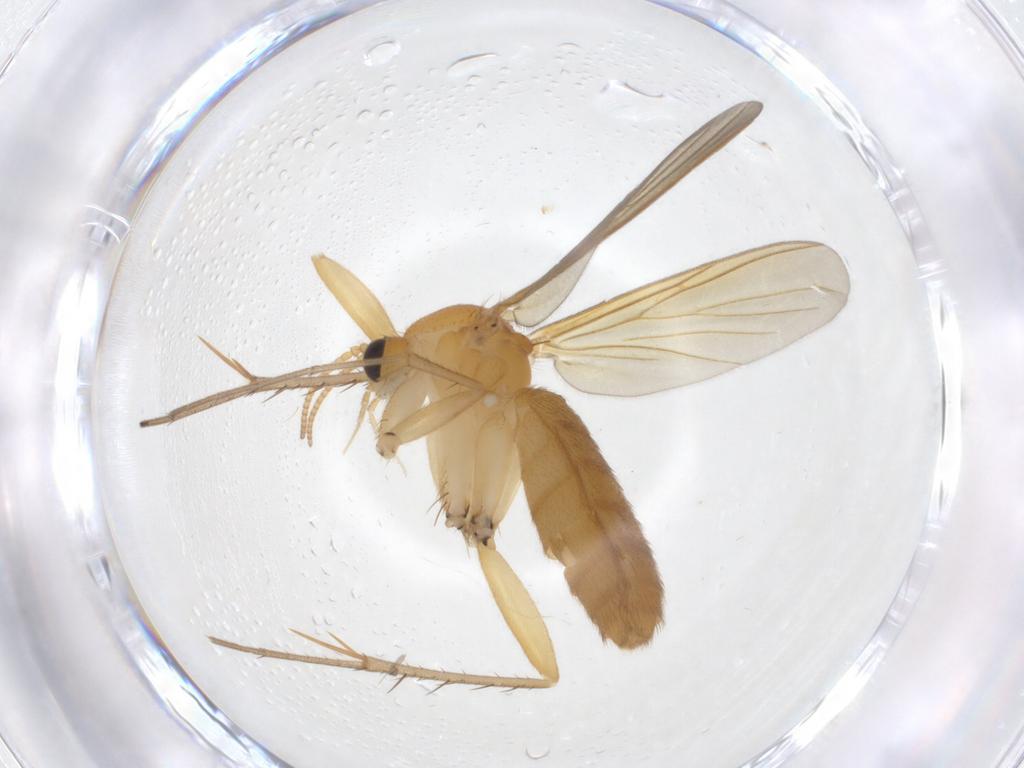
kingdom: Animalia
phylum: Arthropoda
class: Insecta
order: Diptera
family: Mycetophilidae
